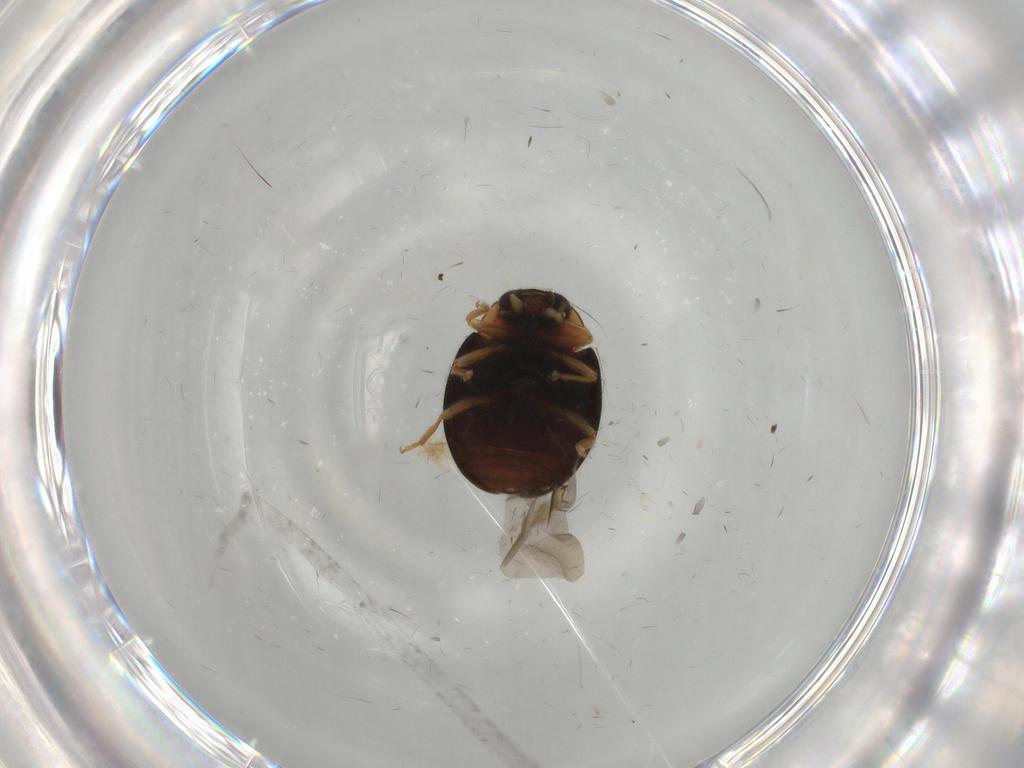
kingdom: Animalia
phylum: Arthropoda
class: Insecta
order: Coleoptera
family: Coccinellidae
